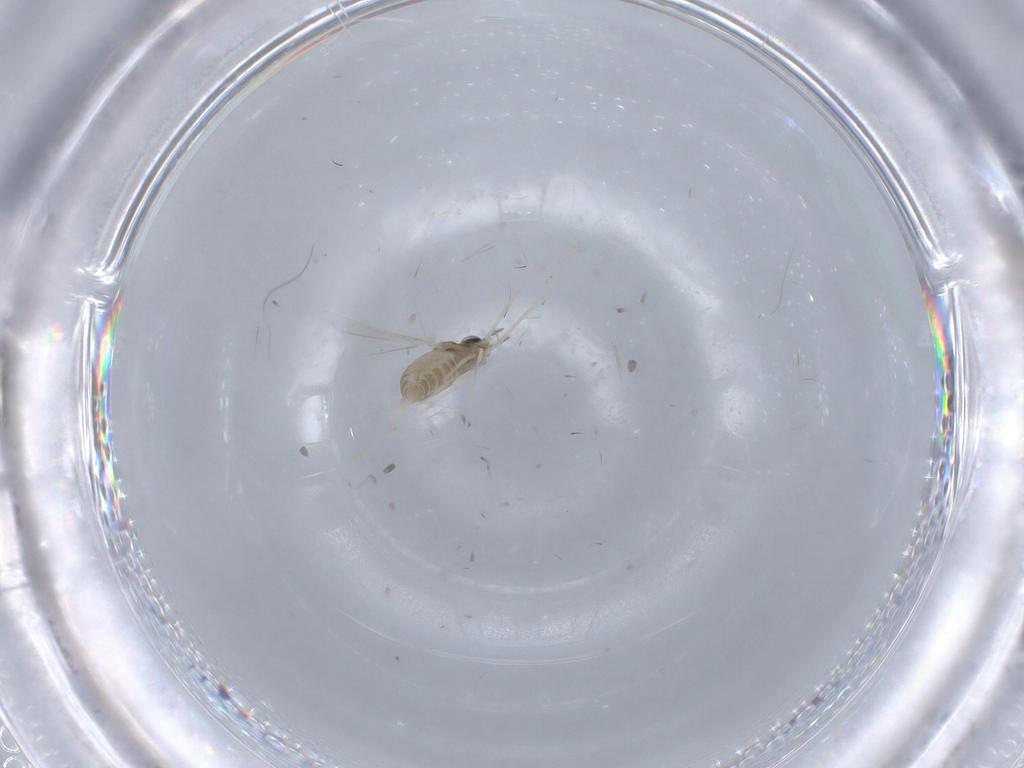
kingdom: Animalia
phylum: Arthropoda
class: Insecta
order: Diptera
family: Cecidomyiidae
